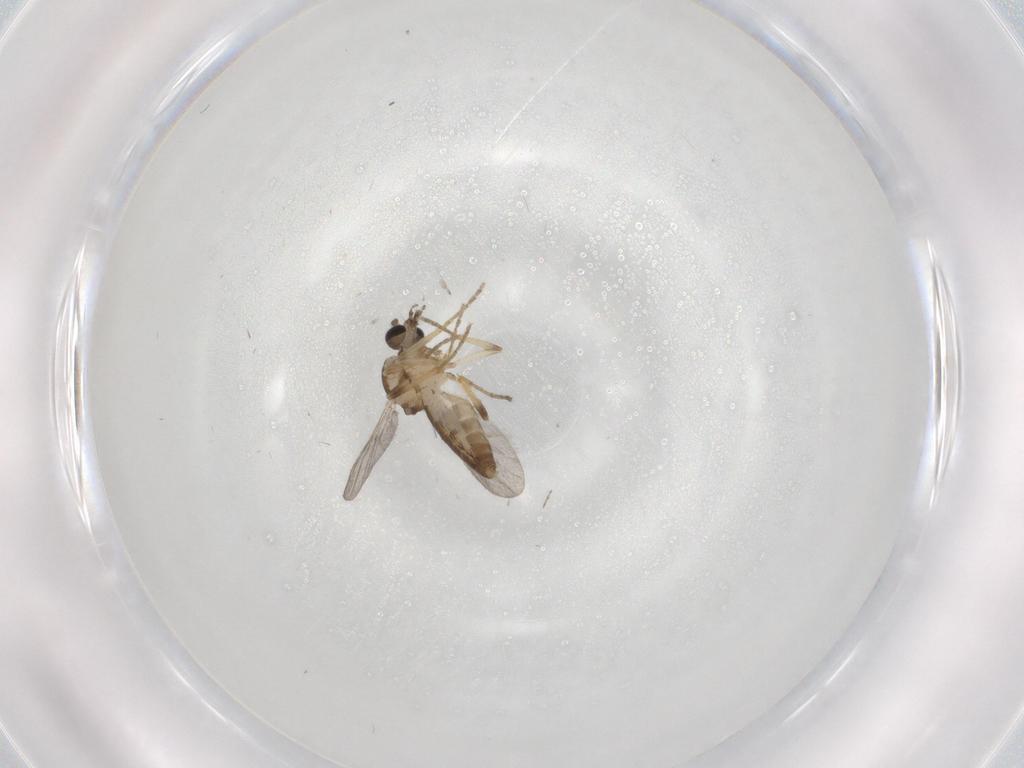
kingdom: Animalia
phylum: Arthropoda
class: Insecta
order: Diptera
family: Ceratopogonidae
